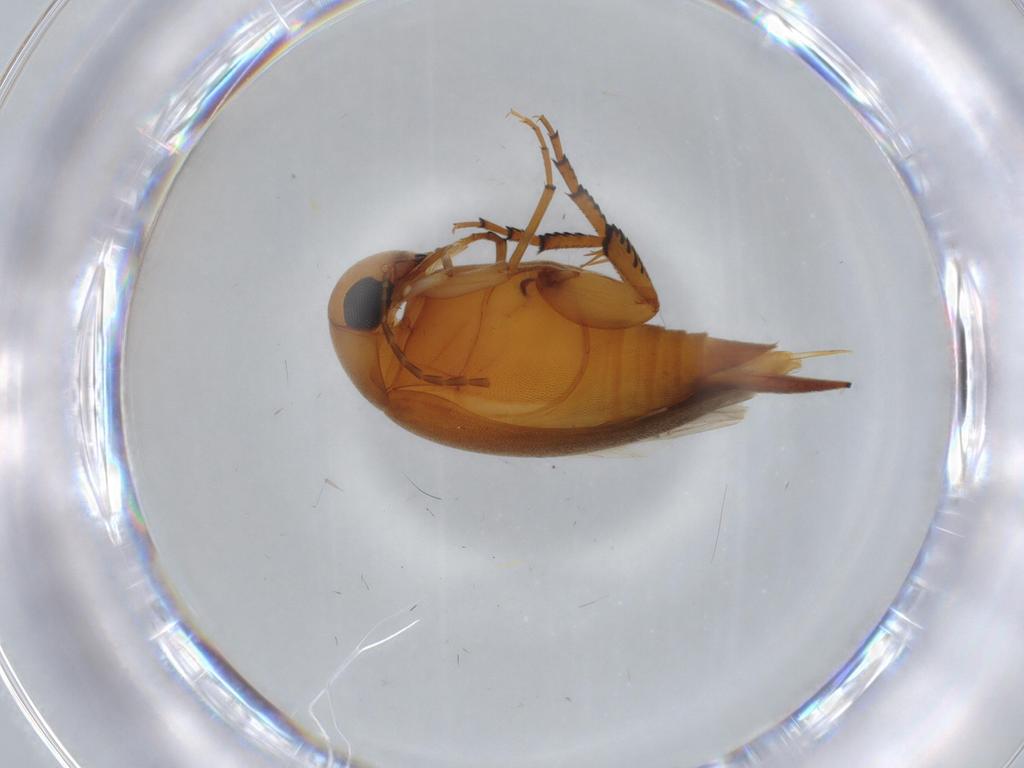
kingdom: Animalia
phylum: Arthropoda
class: Insecta
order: Coleoptera
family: Mordellidae
